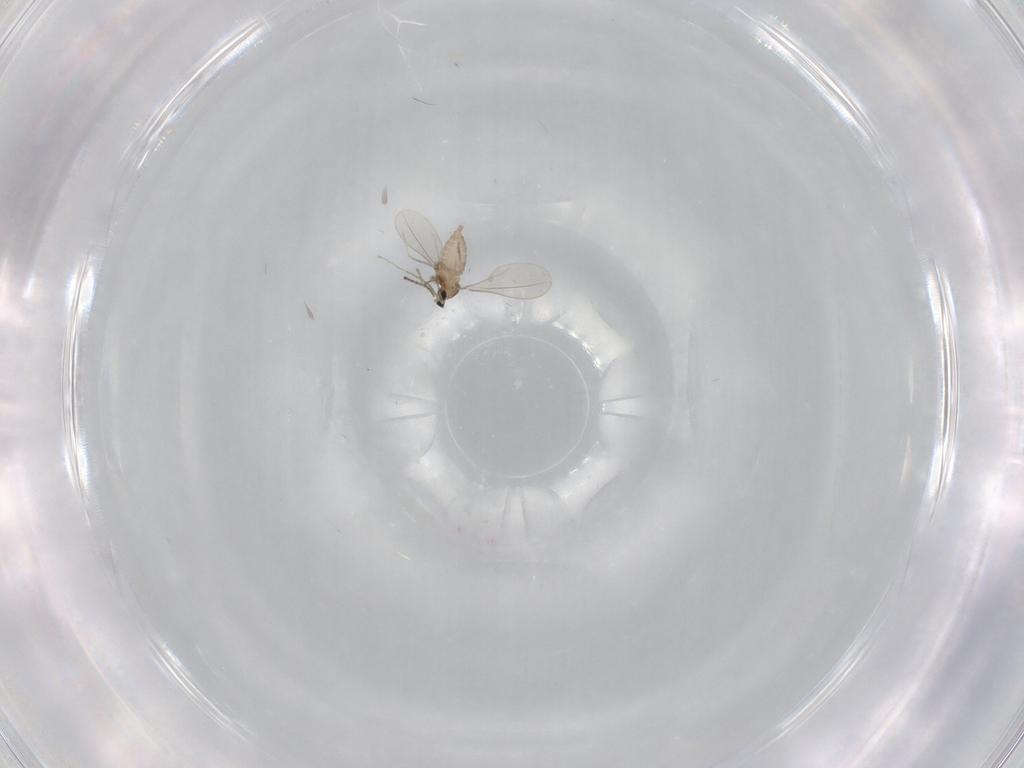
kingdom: Animalia
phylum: Arthropoda
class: Insecta
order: Diptera
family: Cecidomyiidae
